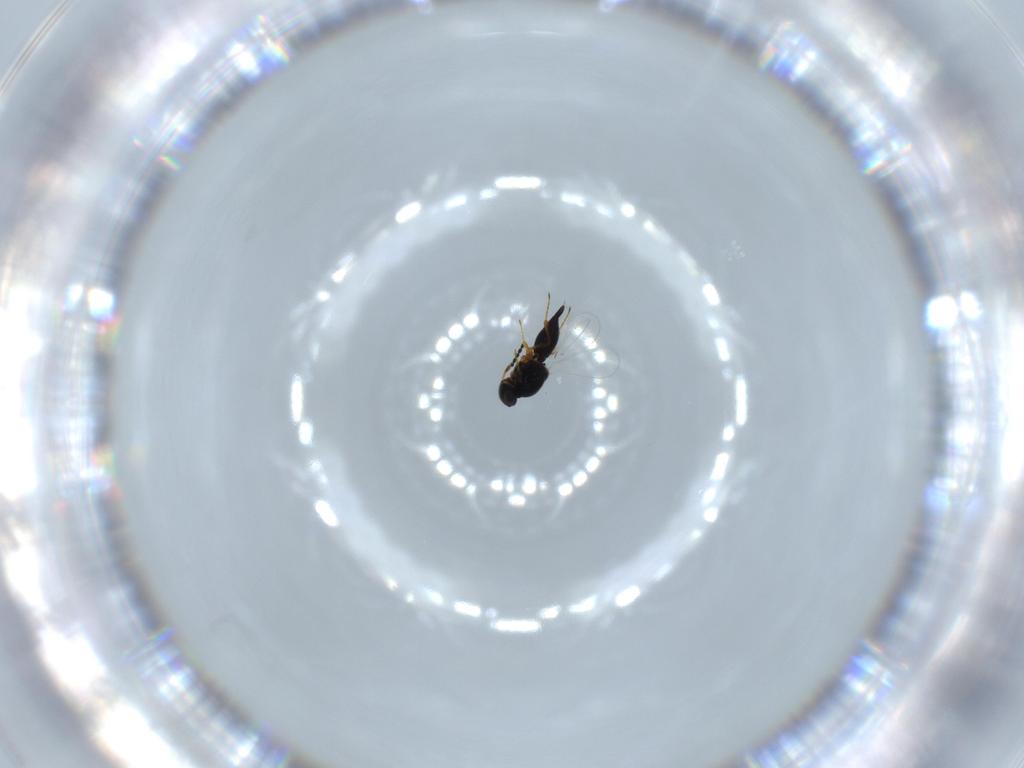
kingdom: Animalia
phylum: Arthropoda
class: Insecta
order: Hymenoptera
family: Platygastridae
